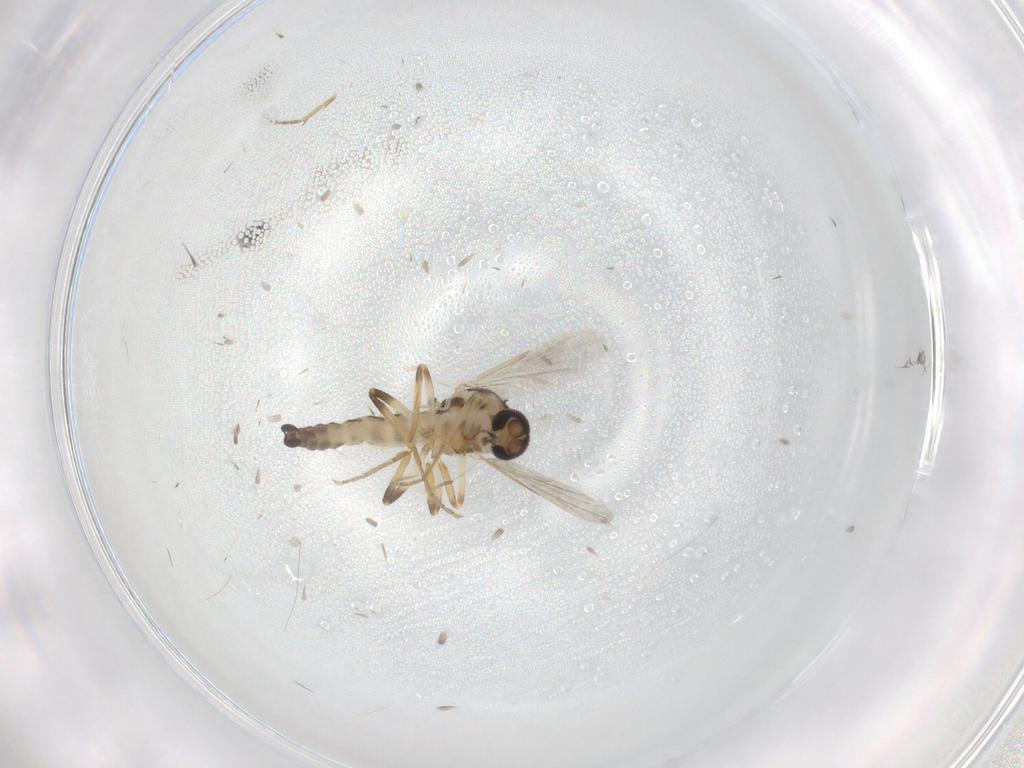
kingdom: Animalia
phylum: Arthropoda
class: Insecta
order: Diptera
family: Ceratopogonidae
